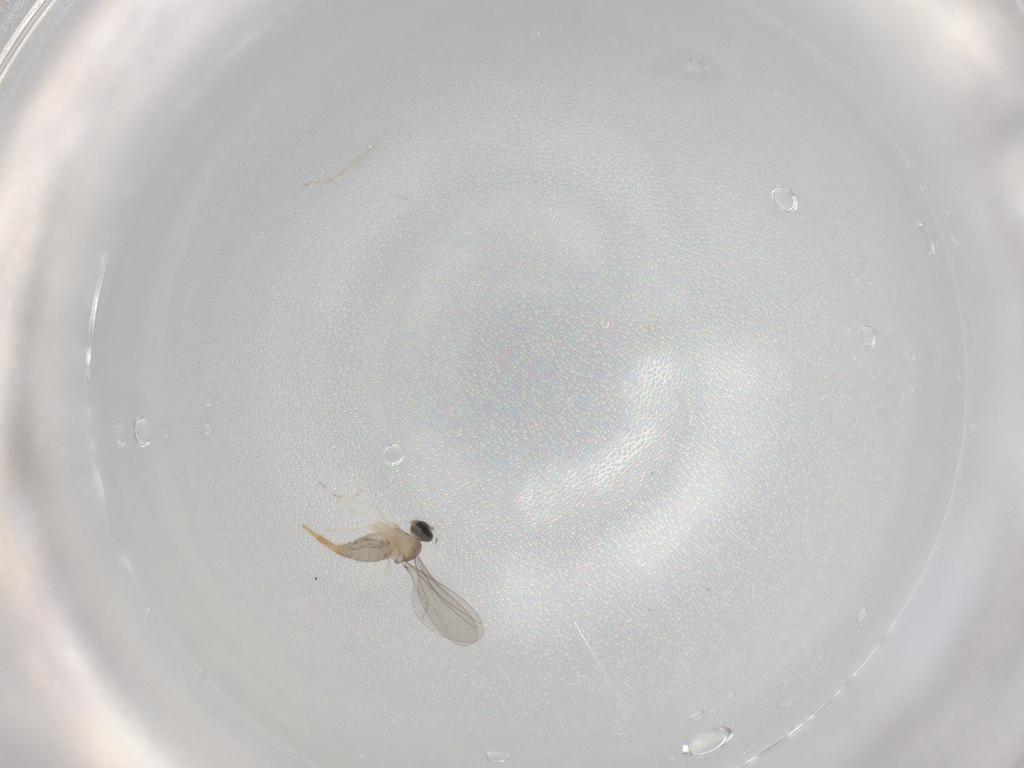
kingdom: Animalia
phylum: Arthropoda
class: Insecta
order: Diptera
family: Cecidomyiidae
